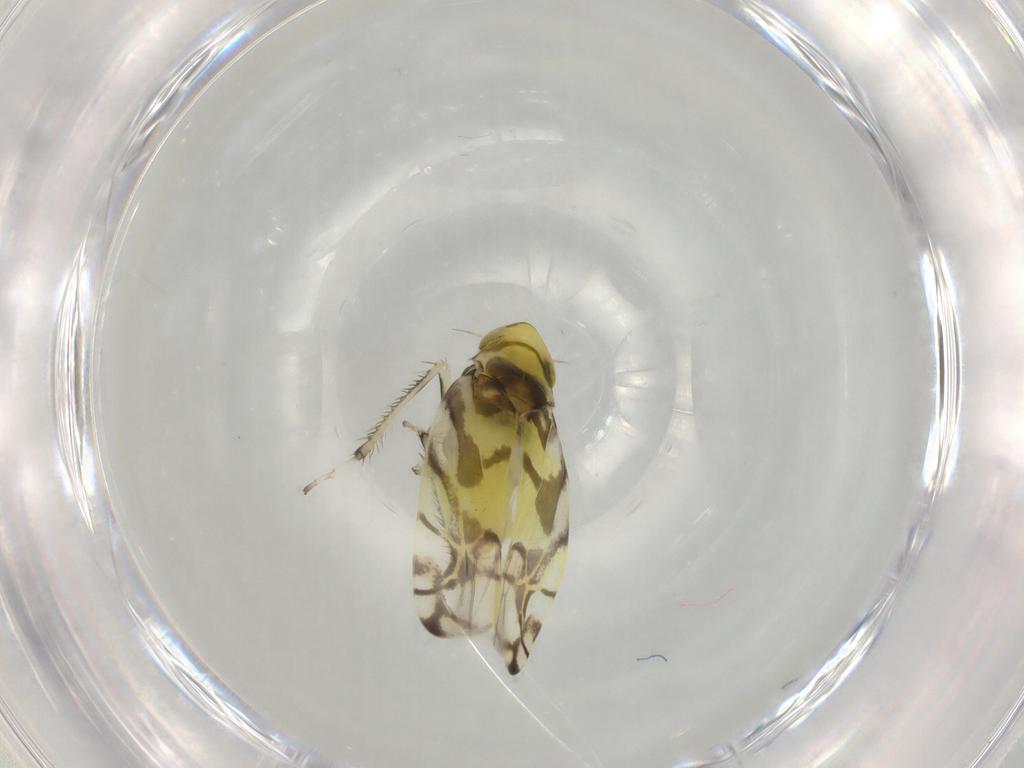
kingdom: Animalia
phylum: Arthropoda
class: Insecta
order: Hemiptera
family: Cicadellidae
